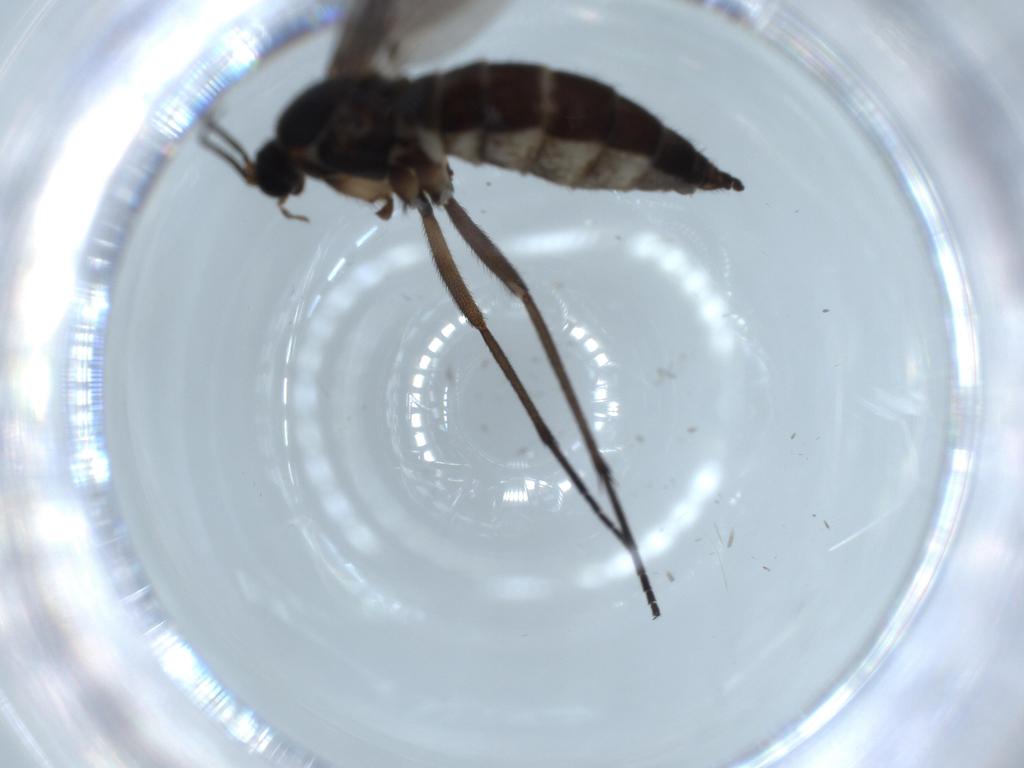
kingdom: Animalia
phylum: Arthropoda
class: Insecta
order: Diptera
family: Sciaridae
